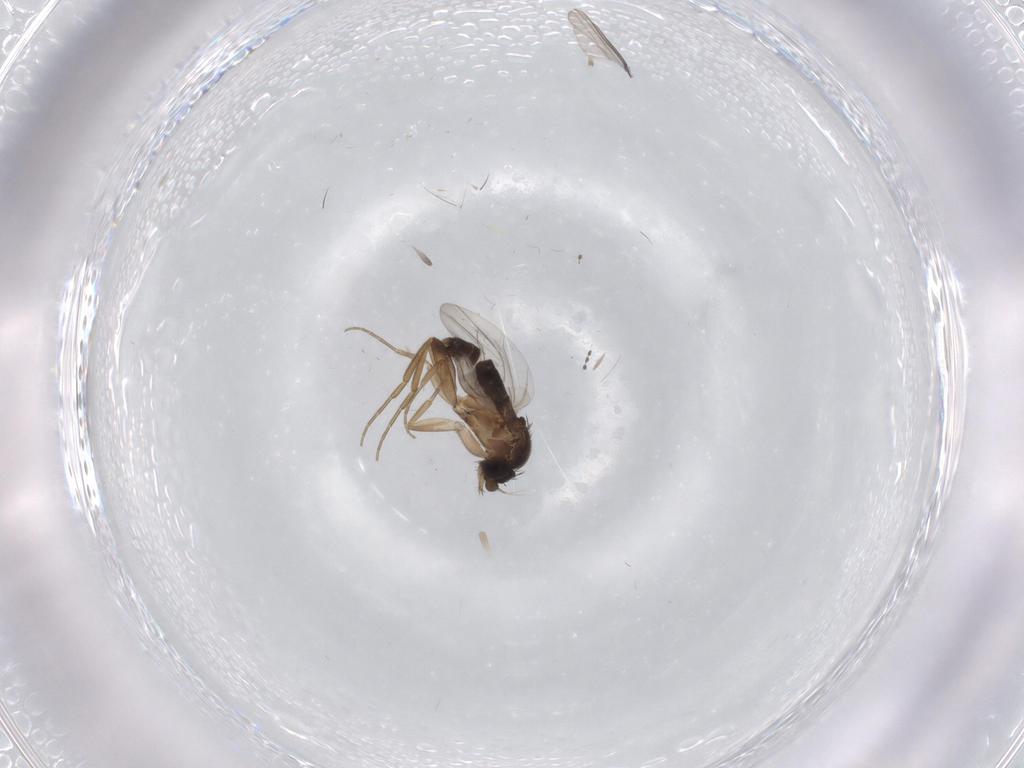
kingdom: Animalia
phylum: Arthropoda
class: Insecta
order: Diptera
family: Phoridae
